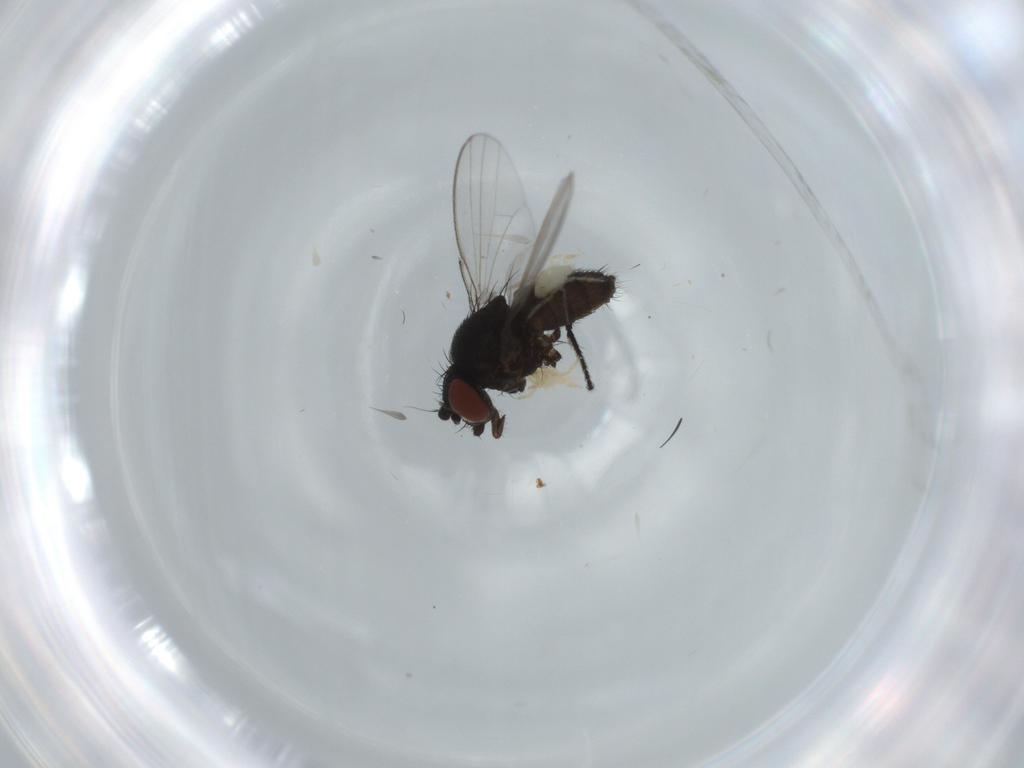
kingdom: Animalia
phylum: Arthropoda
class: Insecta
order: Diptera
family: Milichiidae
